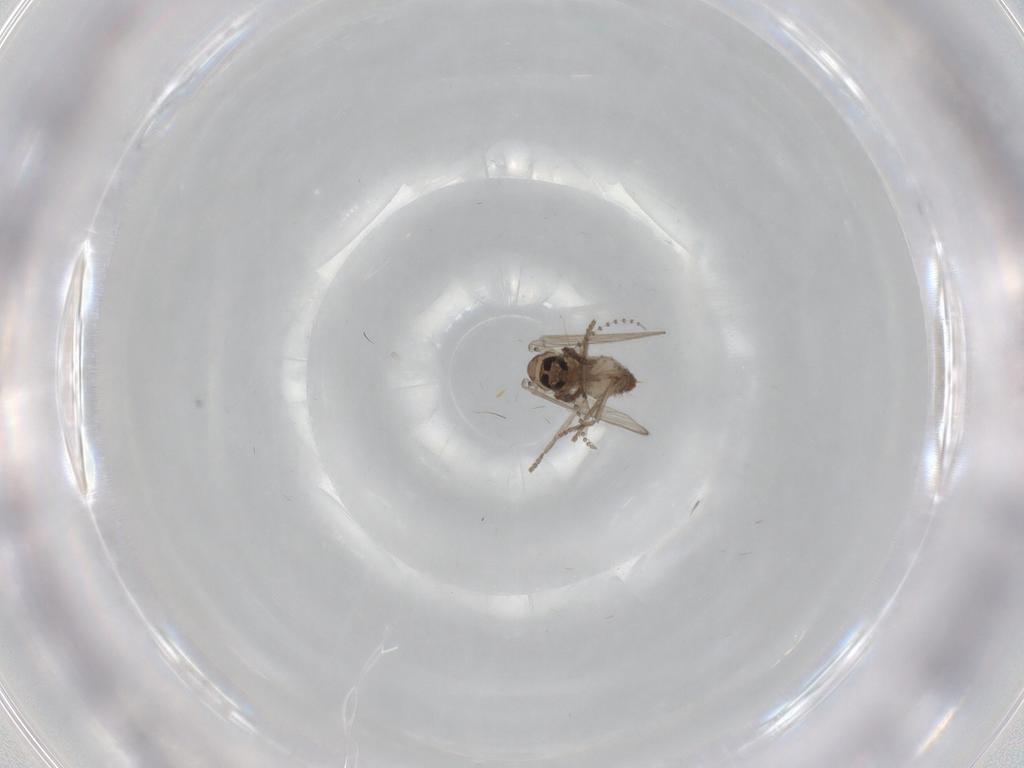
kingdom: Animalia
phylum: Arthropoda
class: Insecta
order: Diptera
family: Psychodidae
